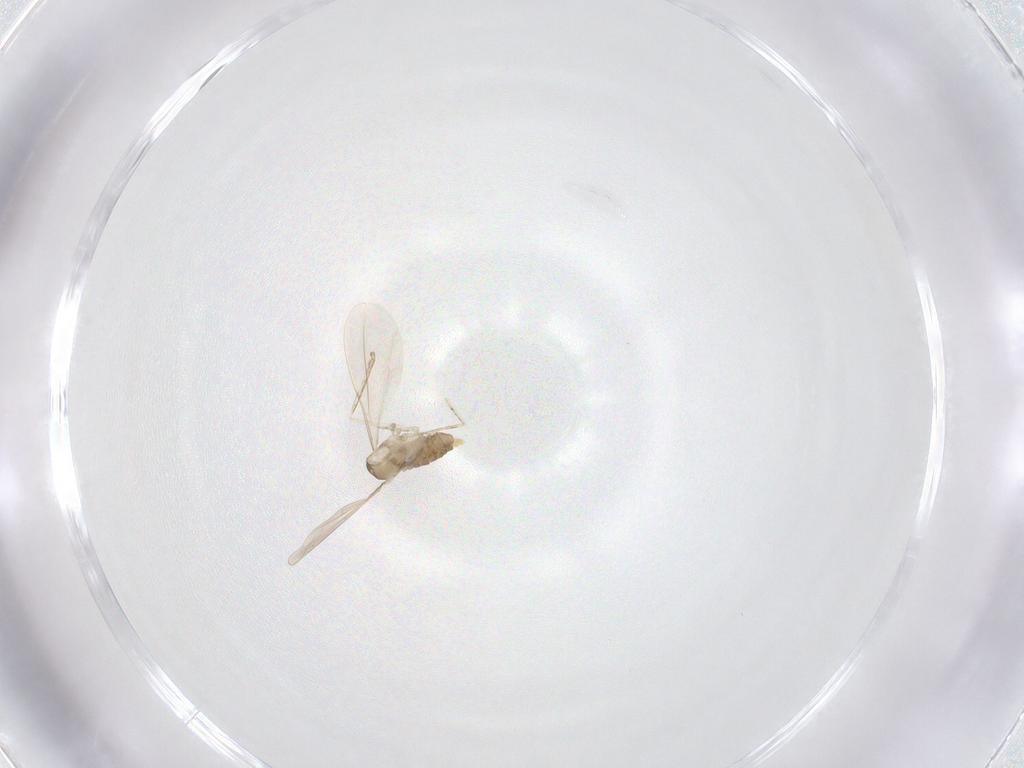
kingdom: Animalia
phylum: Arthropoda
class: Insecta
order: Diptera
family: Cecidomyiidae
